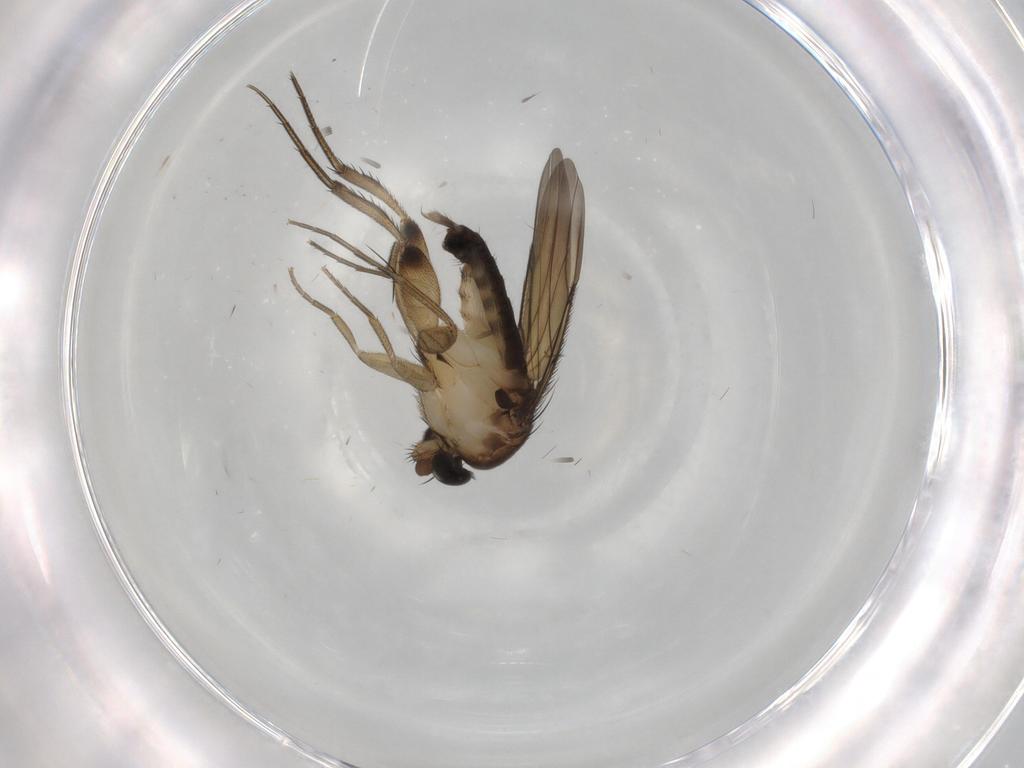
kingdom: Animalia
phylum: Arthropoda
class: Insecta
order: Diptera
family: Phoridae
